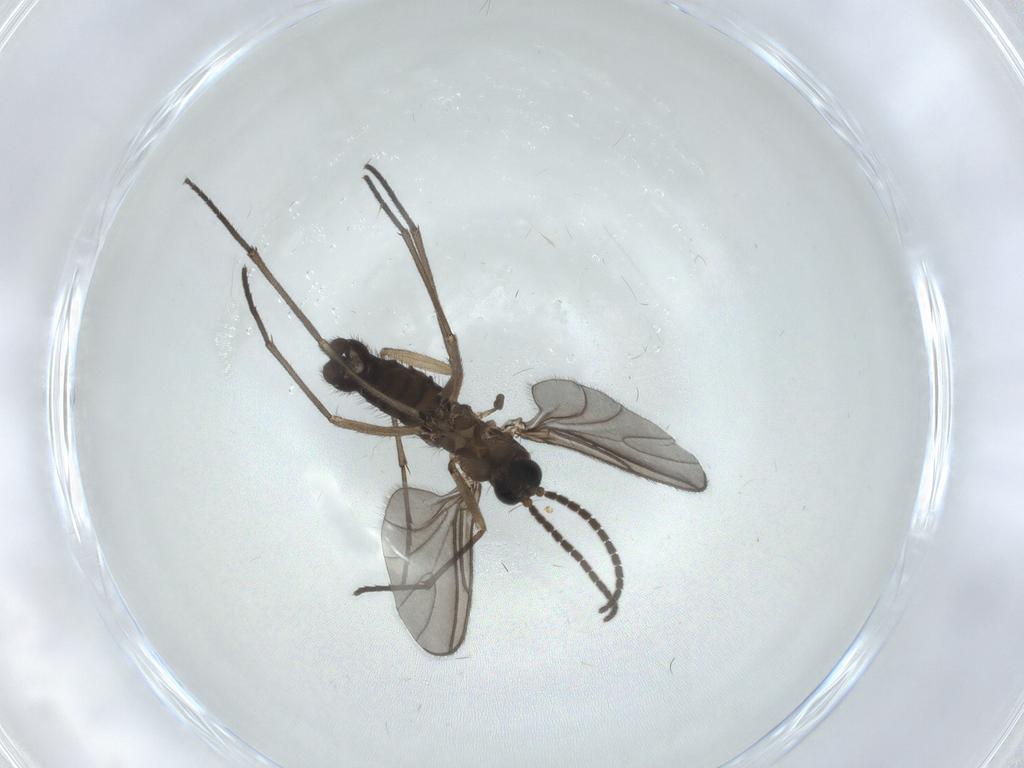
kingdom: Animalia
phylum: Arthropoda
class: Insecta
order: Diptera
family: Sciaridae
